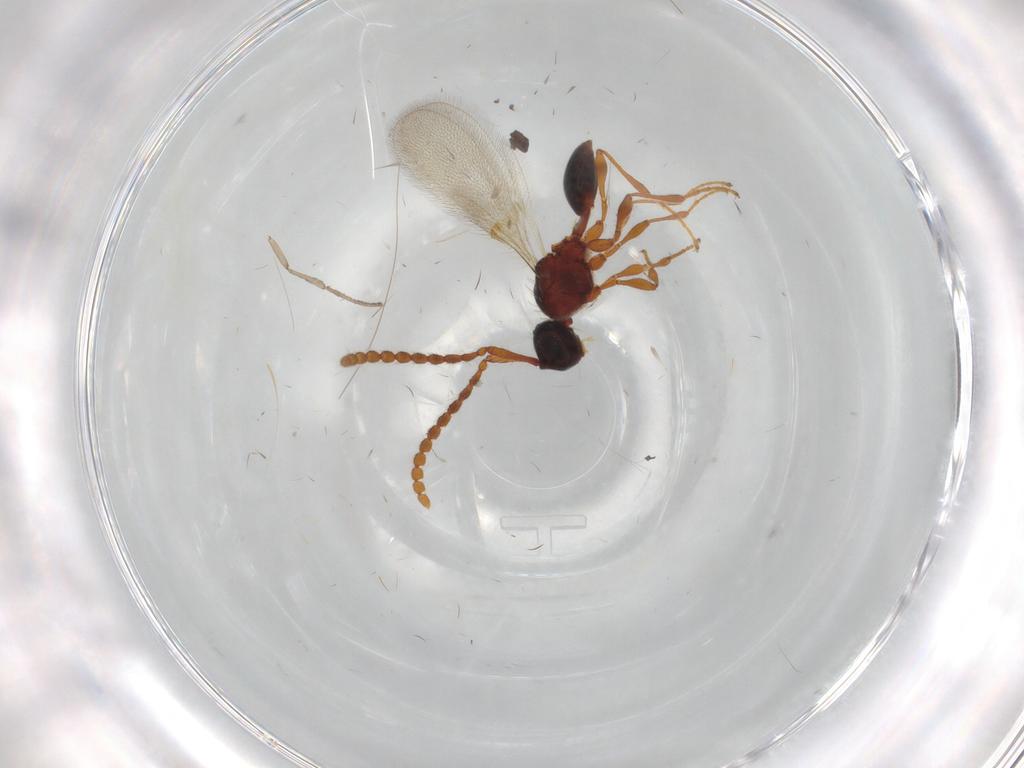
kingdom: Animalia
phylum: Arthropoda
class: Insecta
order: Hymenoptera
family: Diapriidae
